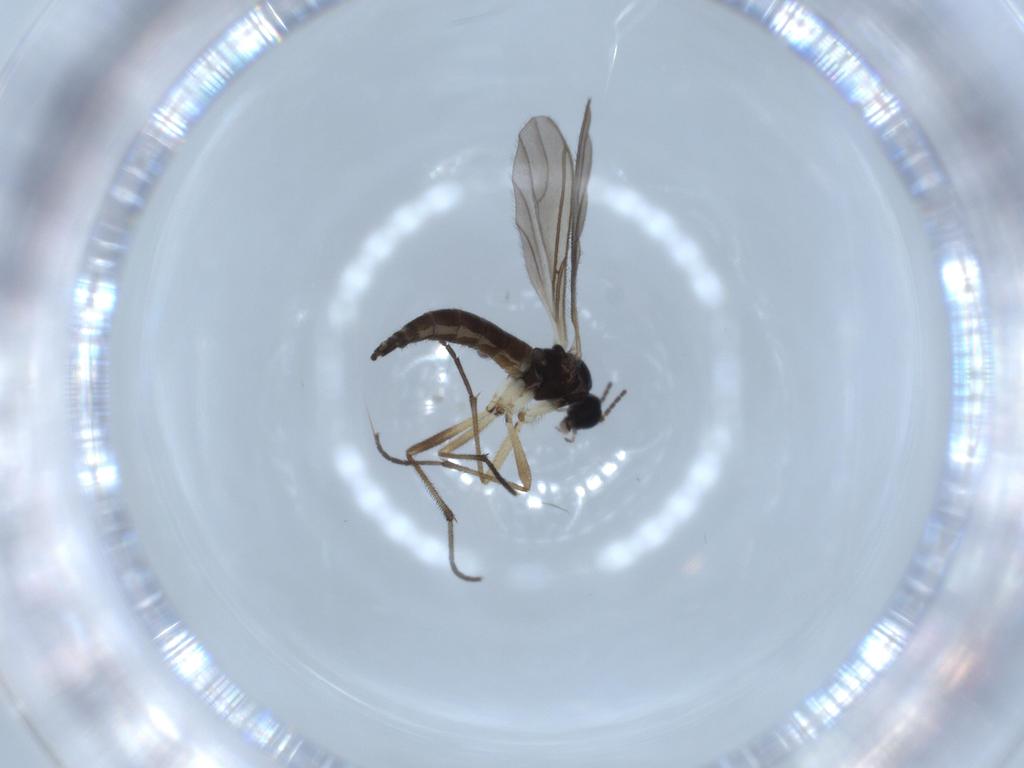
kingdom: Animalia
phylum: Arthropoda
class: Insecta
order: Diptera
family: Sciaridae
